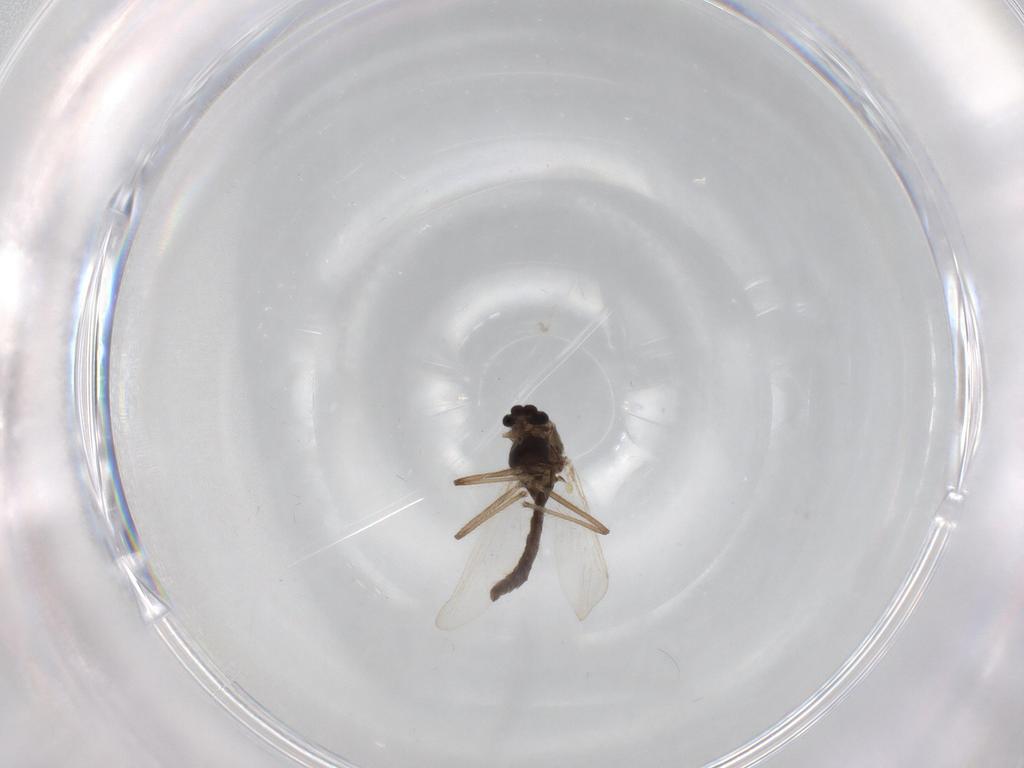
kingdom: Animalia
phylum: Arthropoda
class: Insecta
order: Diptera
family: Chironomidae
